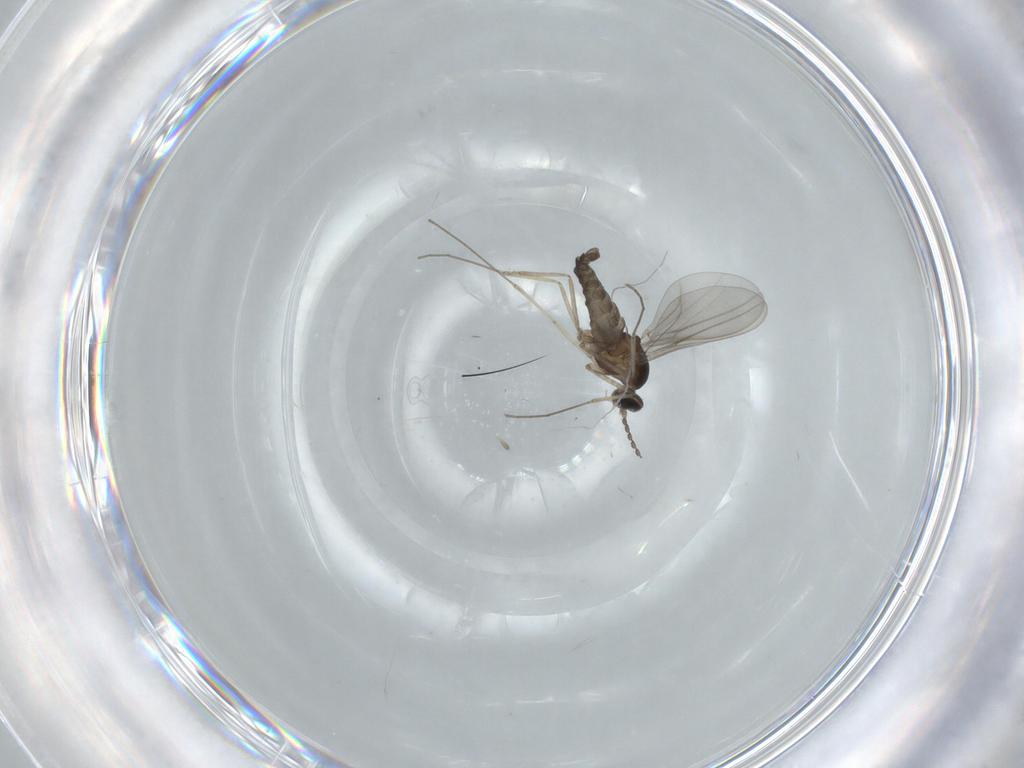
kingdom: Animalia
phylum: Arthropoda
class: Insecta
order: Diptera
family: Cecidomyiidae
